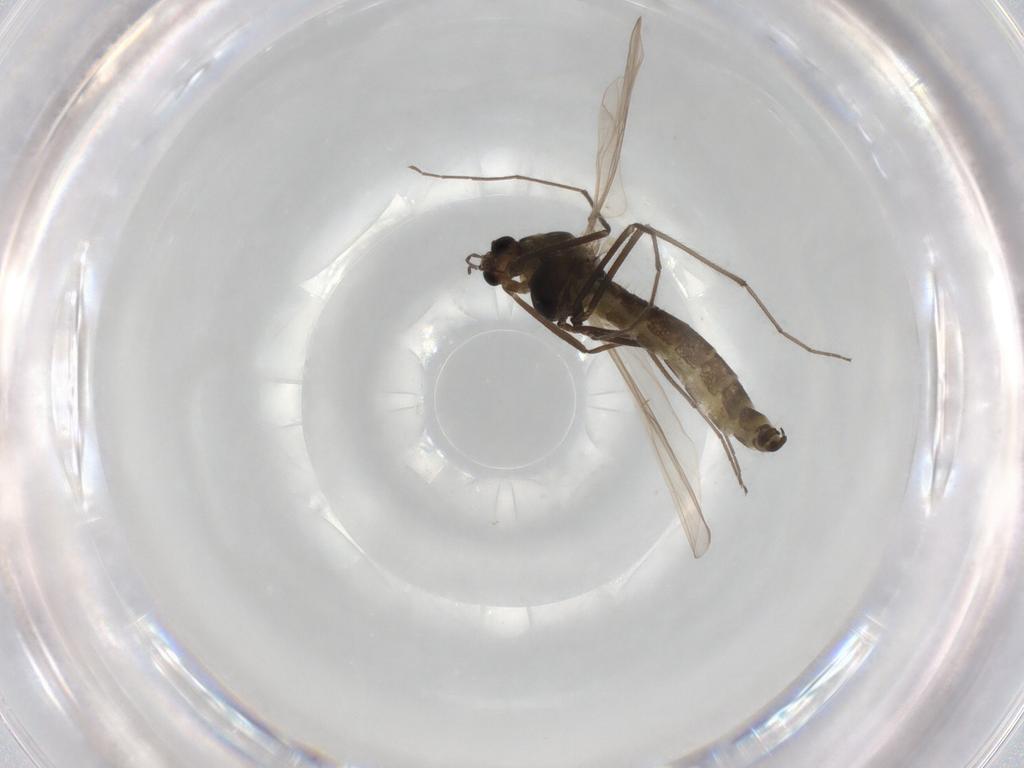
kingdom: Animalia
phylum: Arthropoda
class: Insecta
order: Diptera
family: Chironomidae
